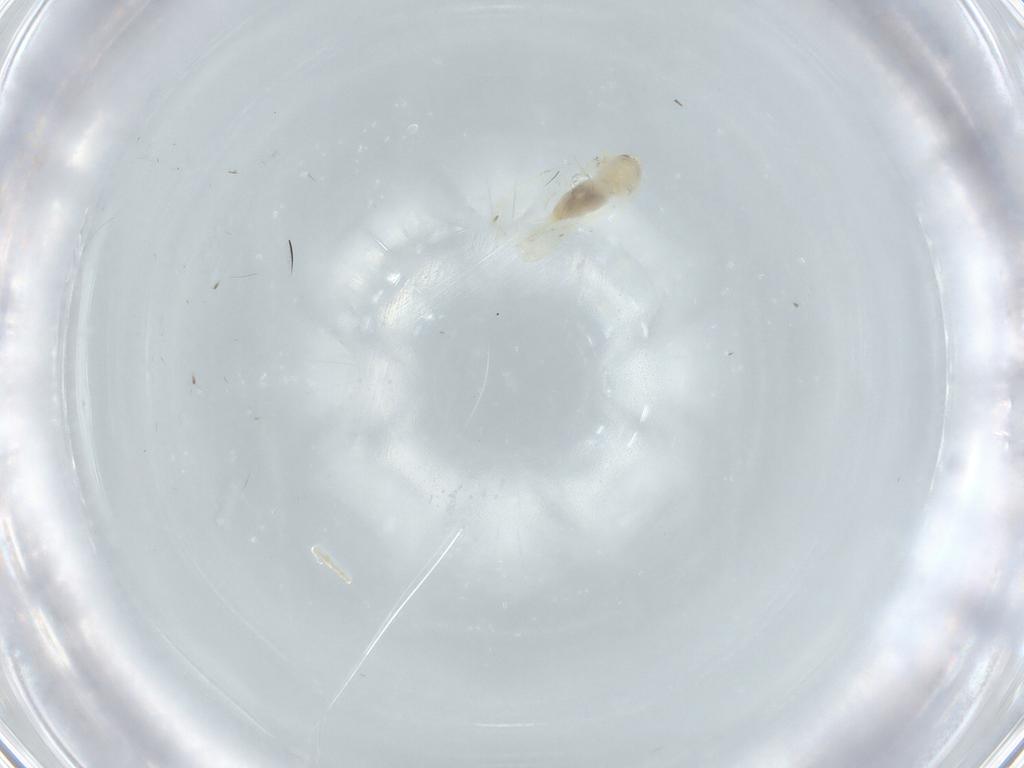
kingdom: Animalia
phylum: Arthropoda
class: Insecta
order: Hemiptera
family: Aleyrodidae
